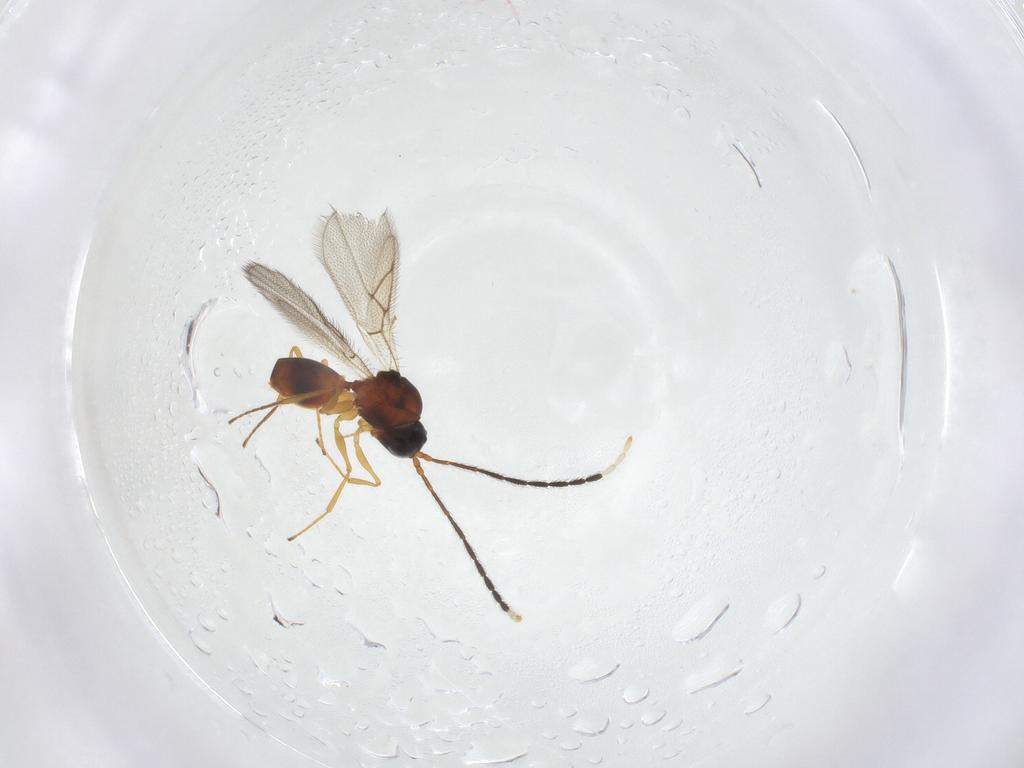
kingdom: Animalia
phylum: Arthropoda
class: Insecta
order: Hymenoptera
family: Figitidae
